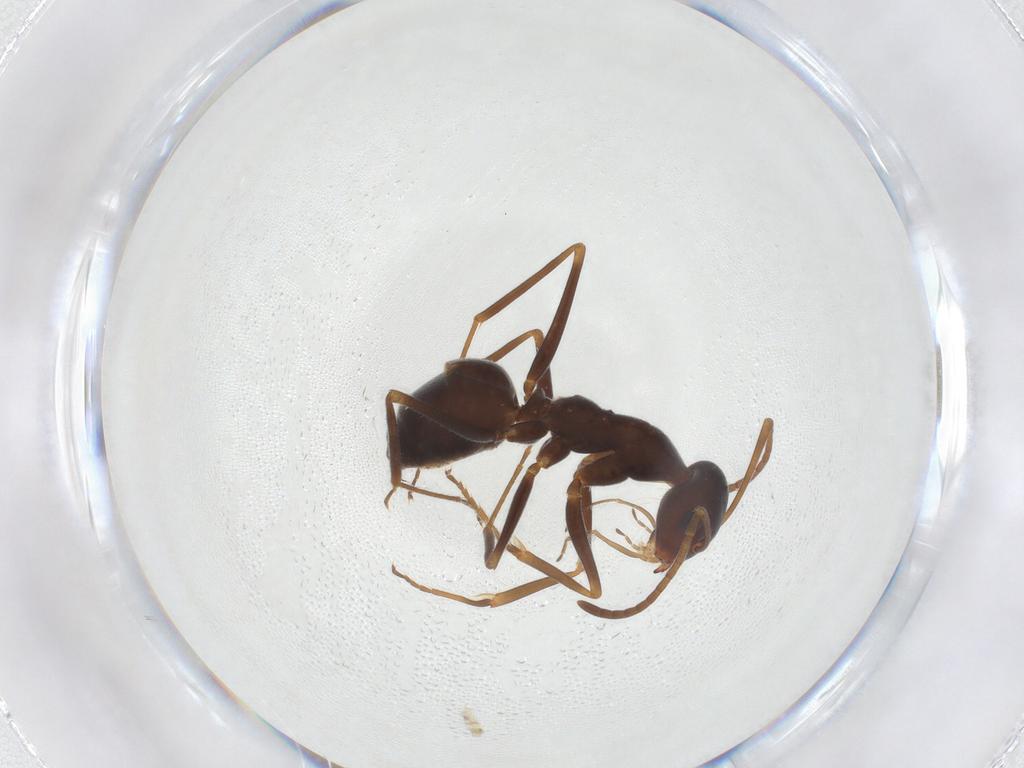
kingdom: Animalia
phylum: Arthropoda
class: Insecta
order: Hymenoptera
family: Formicidae
